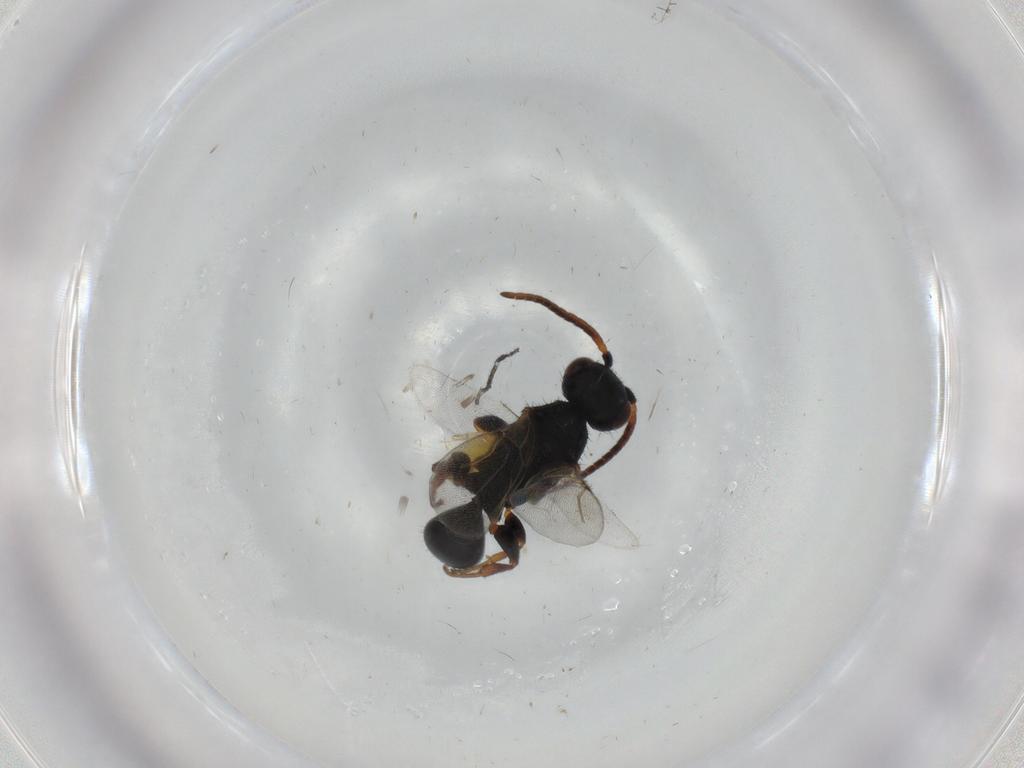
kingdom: Animalia
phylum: Arthropoda
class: Insecta
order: Hymenoptera
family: Bethylidae
